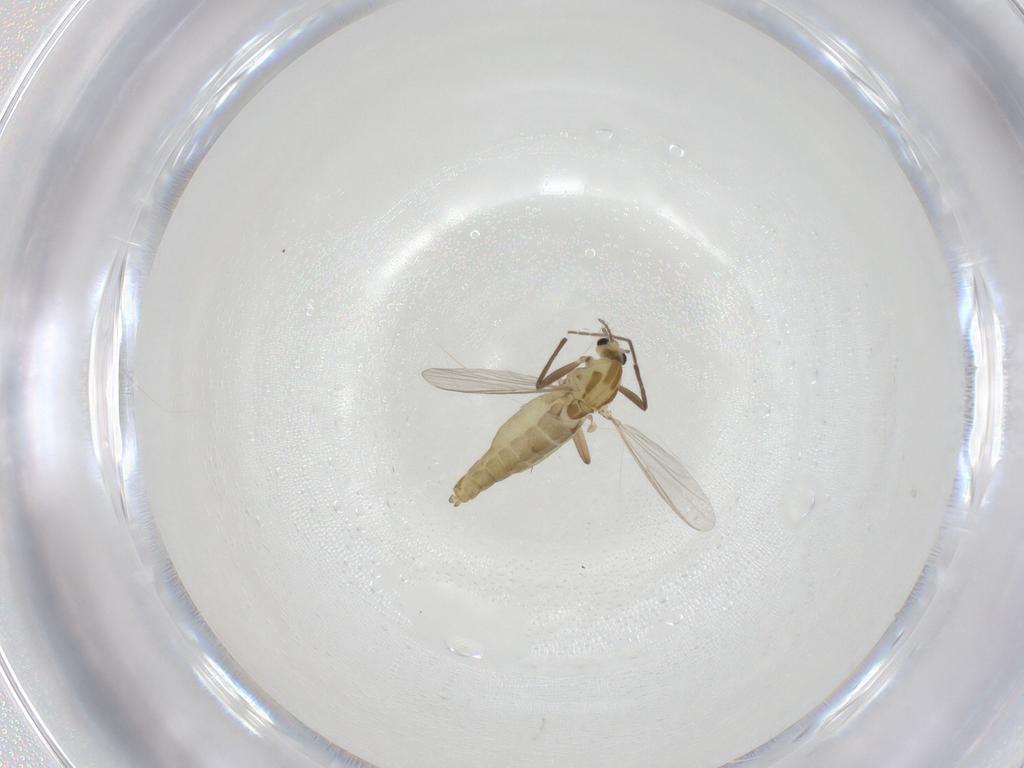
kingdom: Animalia
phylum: Arthropoda
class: Insecta
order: Diptera
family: Chironomidae
